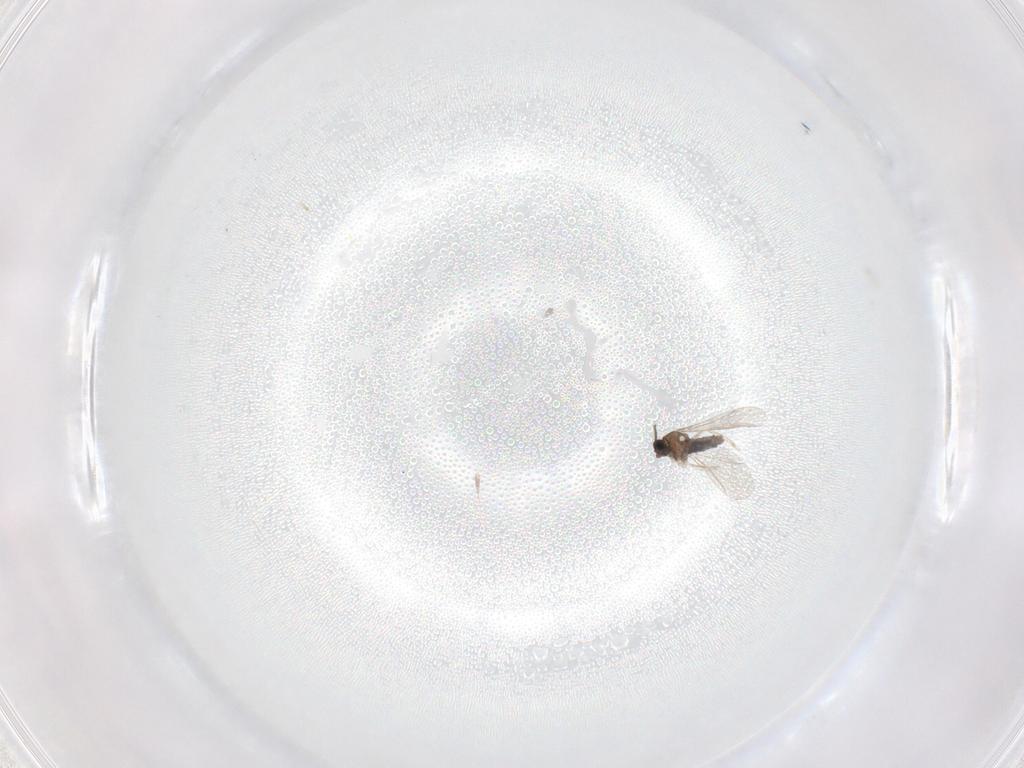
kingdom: Animalia
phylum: Arthropoda
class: Insecta
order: Diptera
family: Cecidomyiidae
